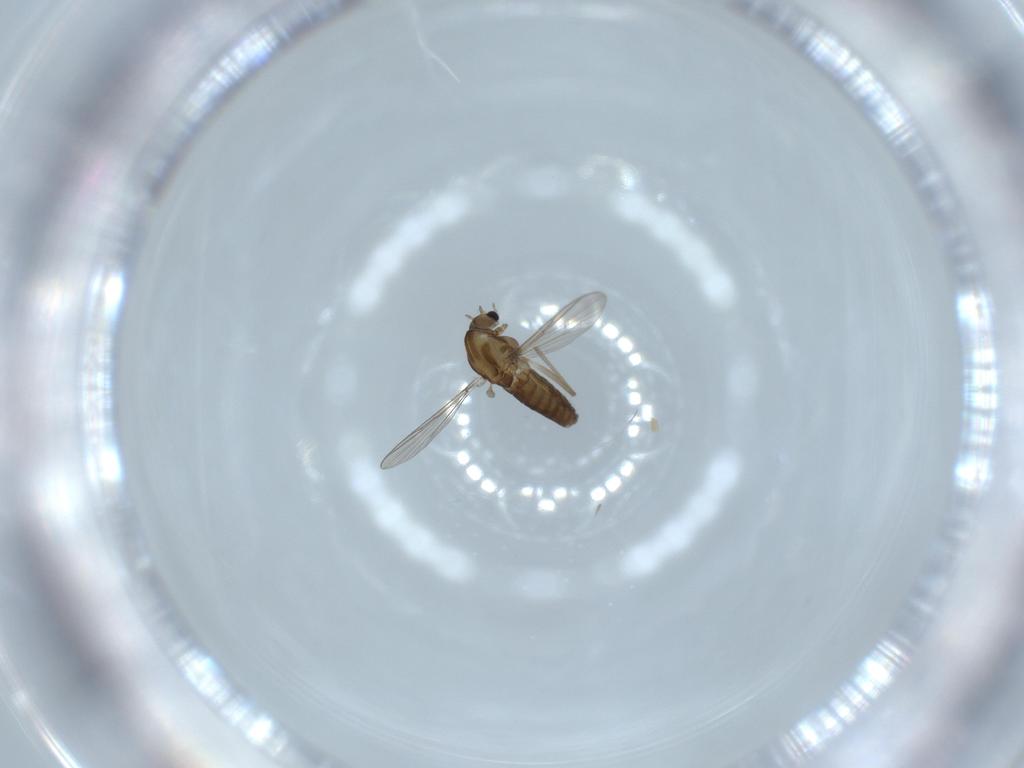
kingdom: Animalia
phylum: Arthropoda
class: Insecta
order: Diptera
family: Chironomidae
